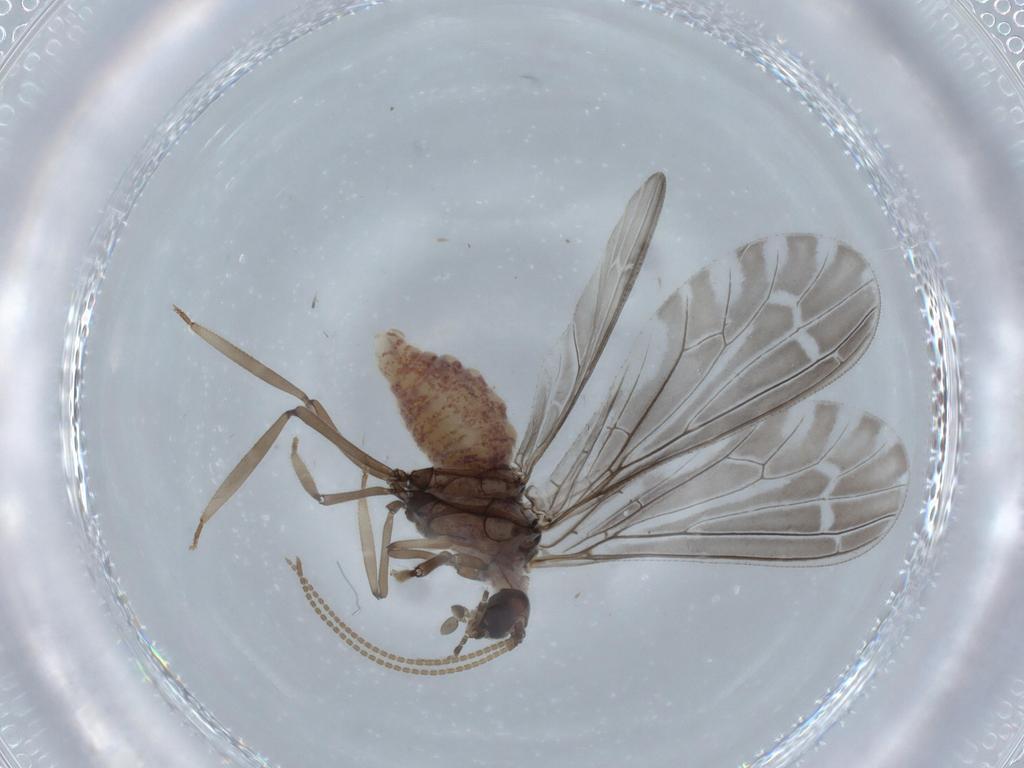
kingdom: Animalia
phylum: Arthropoda
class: Insecta
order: Neuroptera
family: Coniopterygidae
